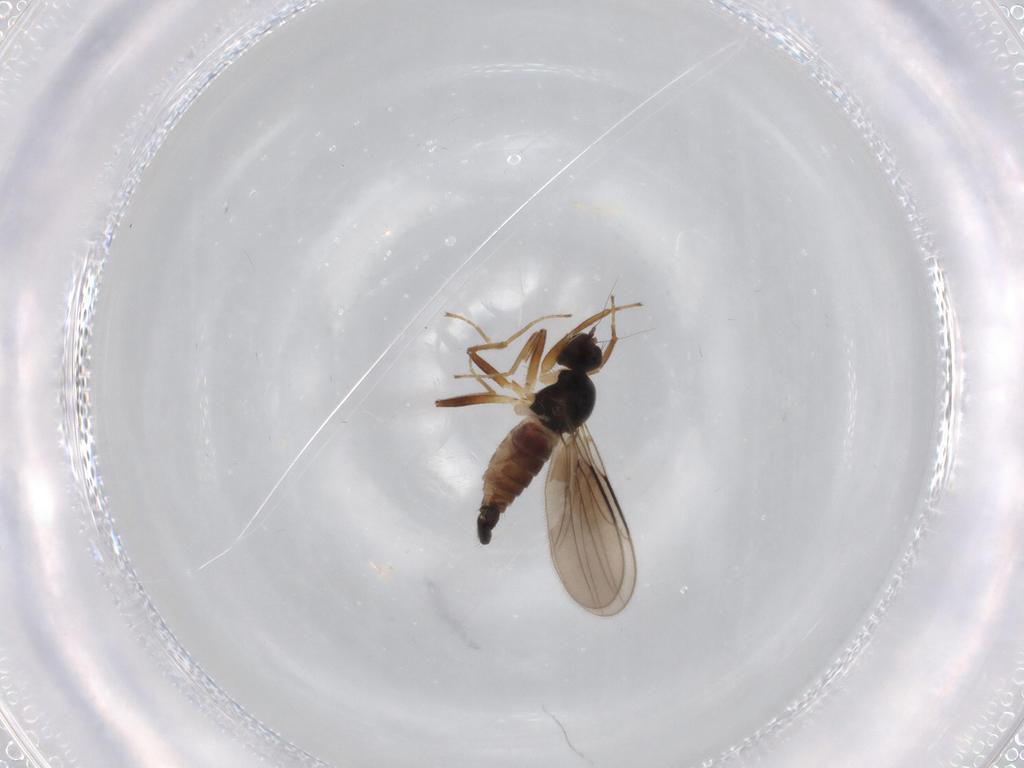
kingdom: Animalia
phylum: Arthropoda
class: Insecta
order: Diptera
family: Hybotidae
